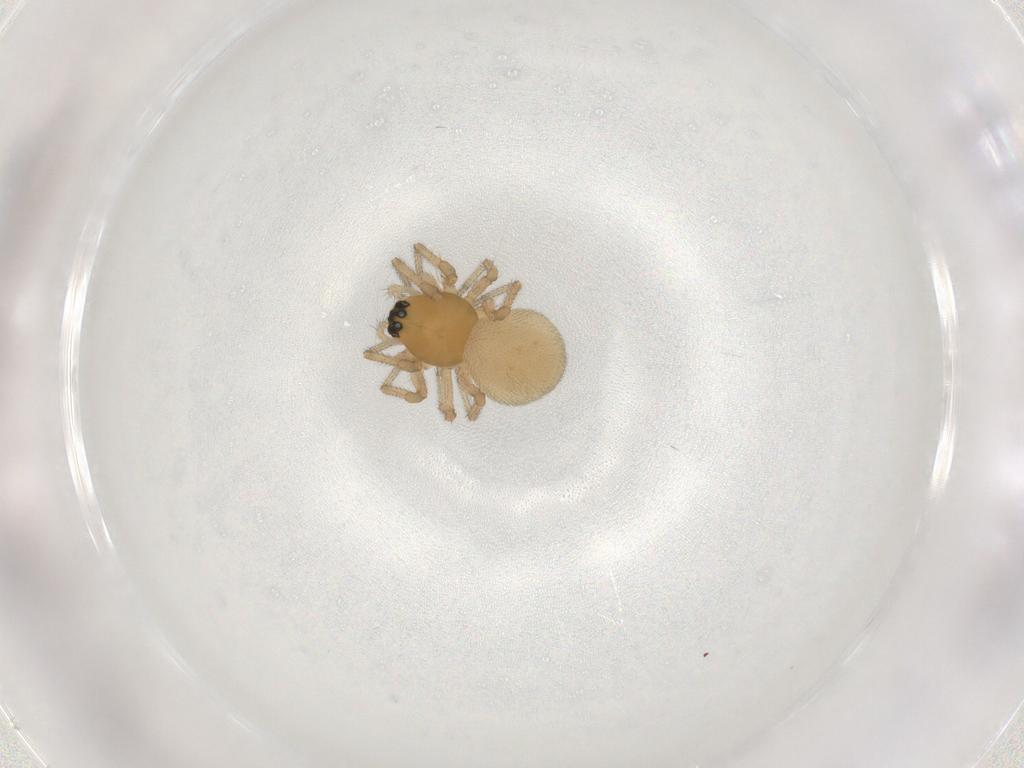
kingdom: Animalia
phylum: Arthropoda
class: Arachnida
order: Araneae
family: Linyphiidae
